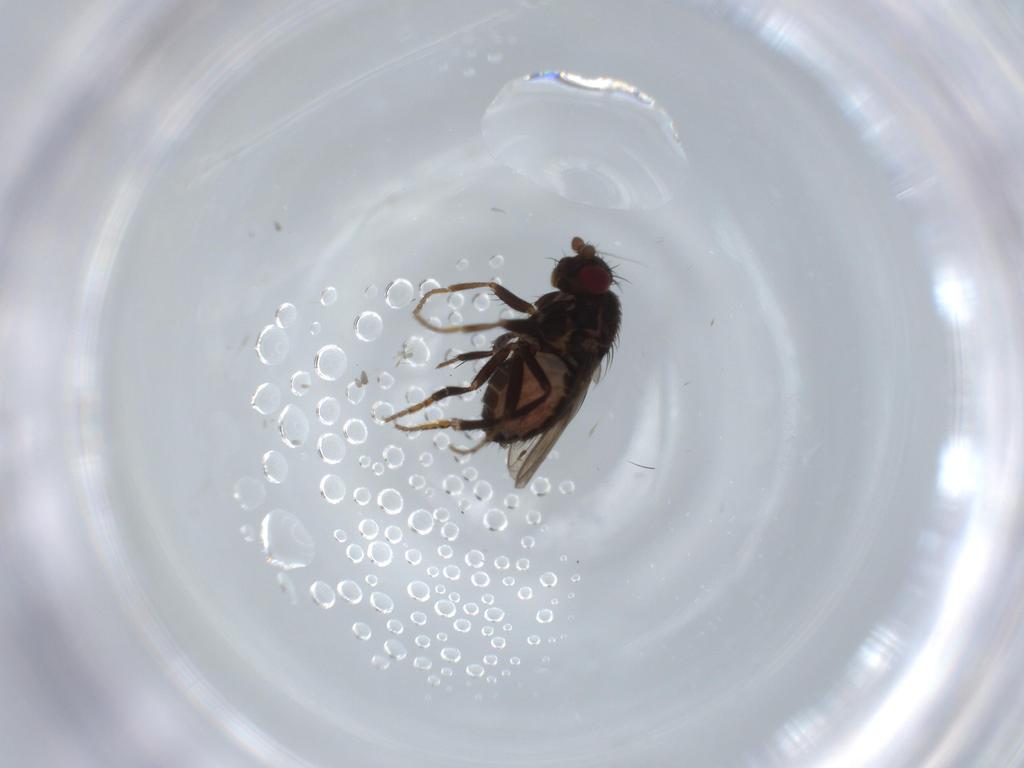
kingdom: Animalia
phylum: Arthropoda
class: Insecta
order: Diptera
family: Sphaeroceridae
